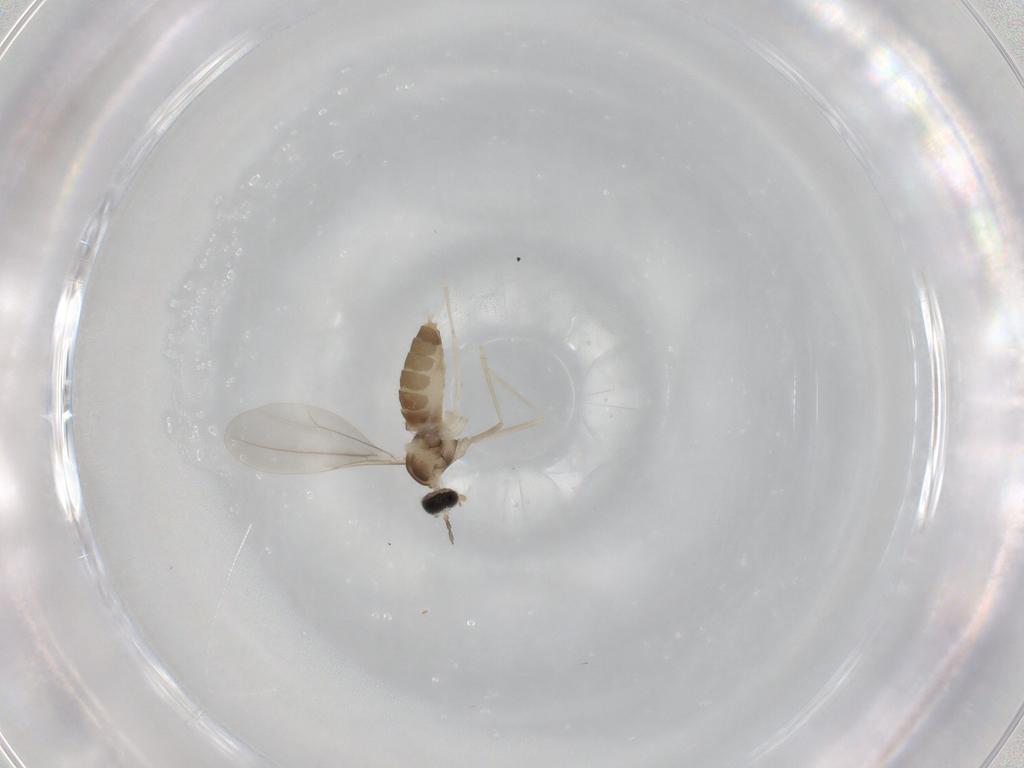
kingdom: Animalia
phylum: Arthropoda
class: Insecta
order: Diptera
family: Cecidomyiidae
